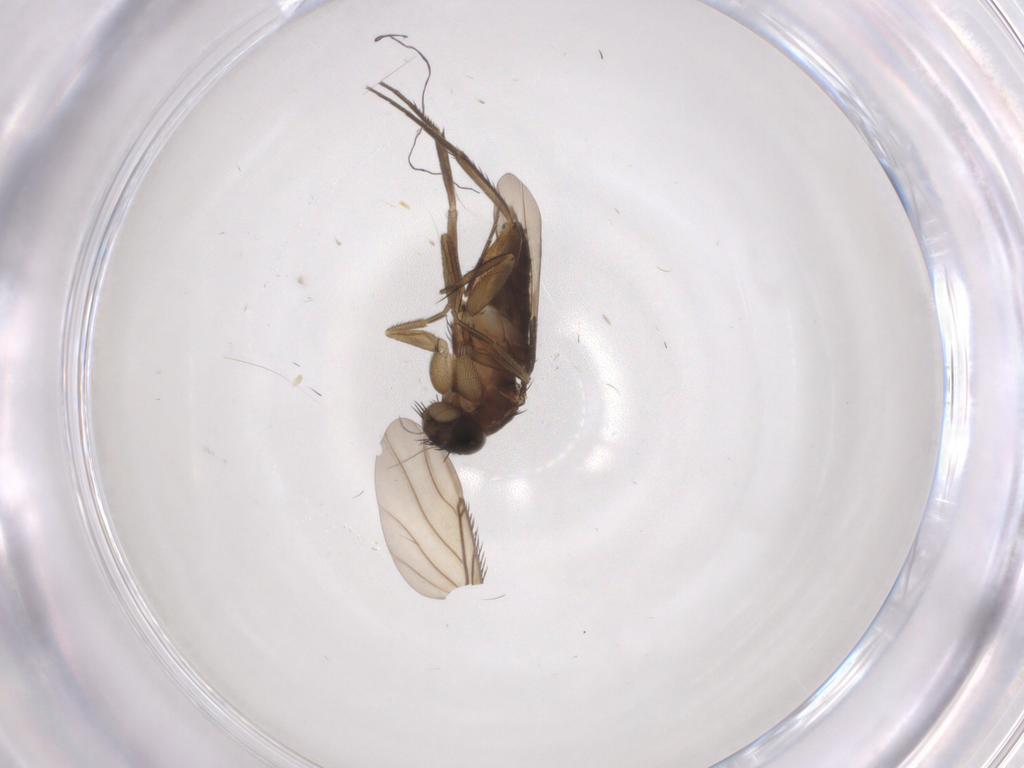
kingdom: Animalia
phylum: Arthropoda
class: Insecta
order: Diptera
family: Phoridae
